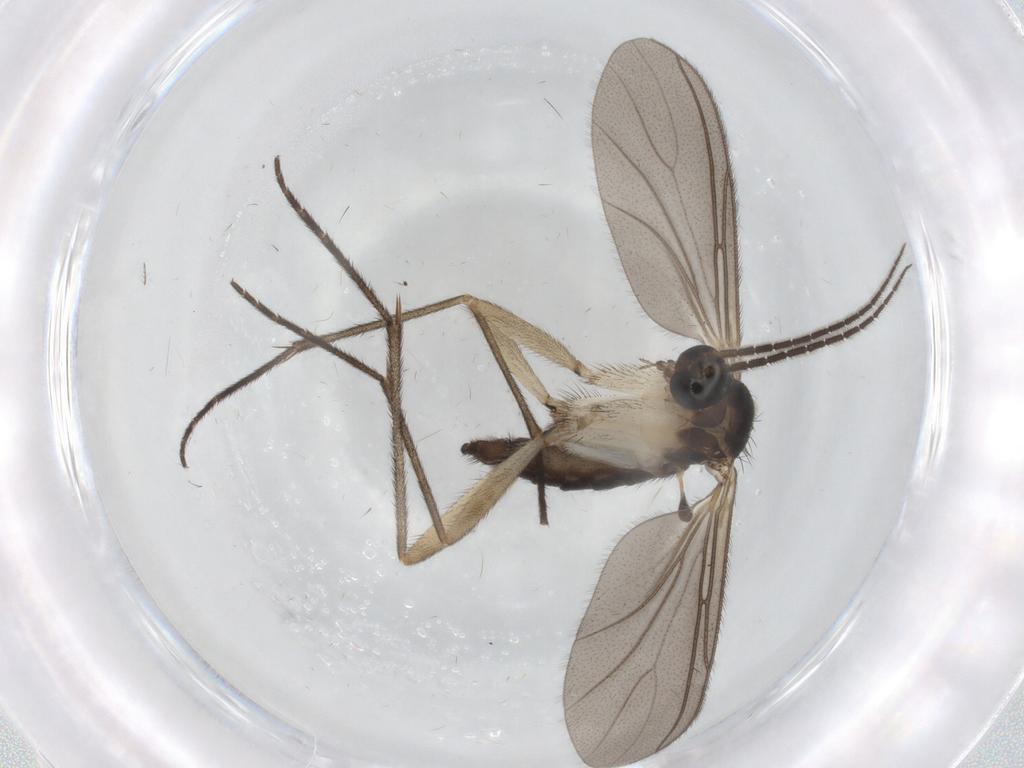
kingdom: Animalia
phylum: Arthropoda
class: Insecta
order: Diptera
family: Sciaridae
